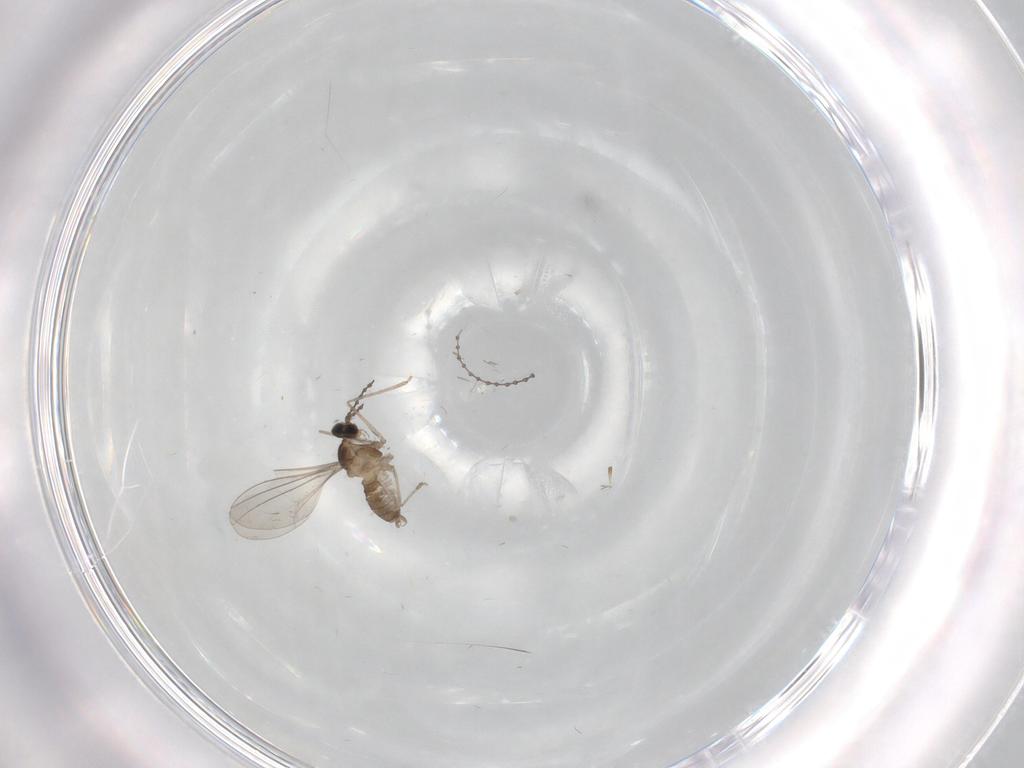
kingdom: Animalia
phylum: Arthropoda
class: Insecta
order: Diptera
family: Cecidomyiidae
